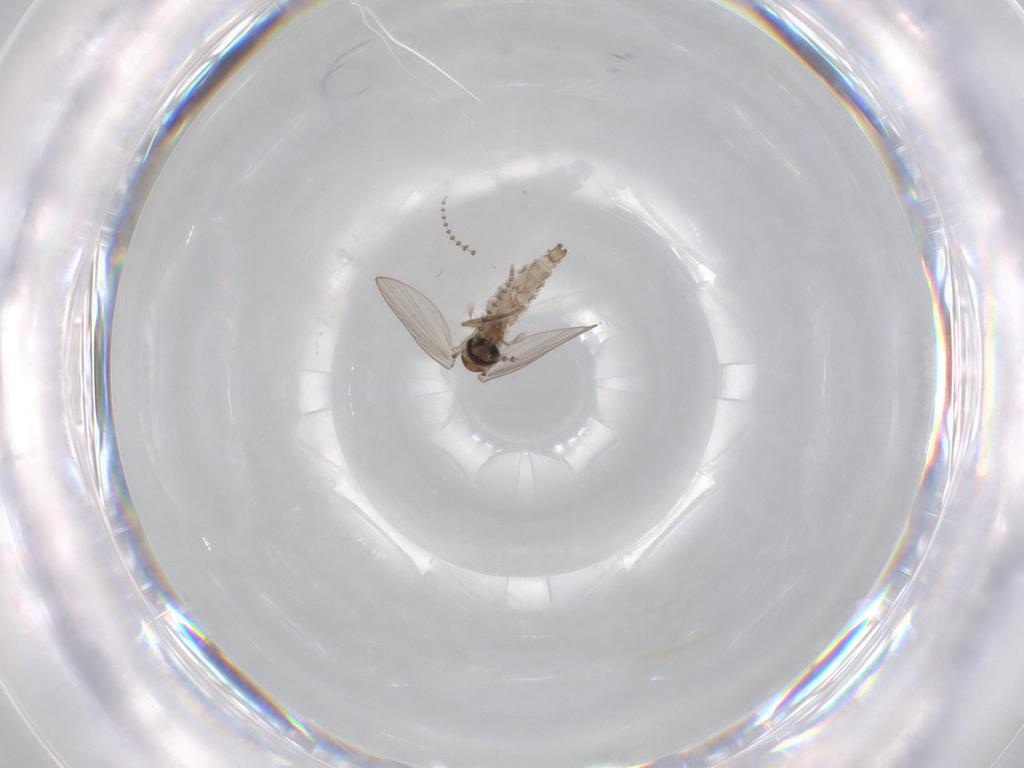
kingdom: Animalia
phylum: Arthropoda
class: Insecta
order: Diptera
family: Psychodidae
